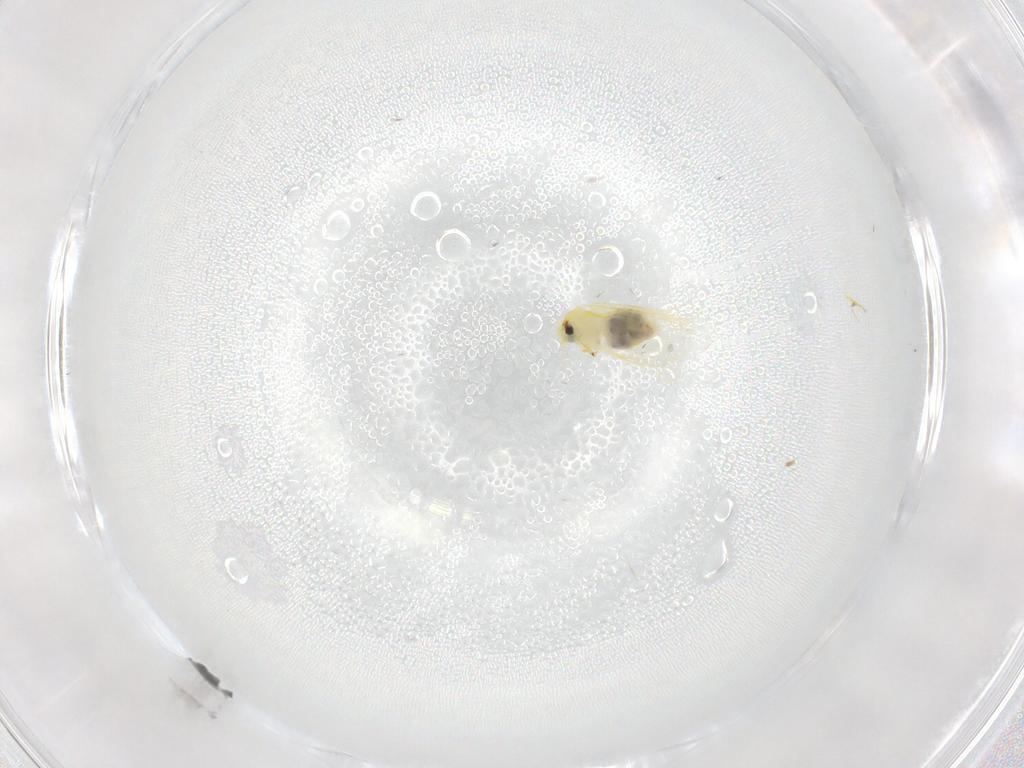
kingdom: Animalia
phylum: Arthropoda
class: Insecta
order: Hemiptera
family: Aleyrodidae
